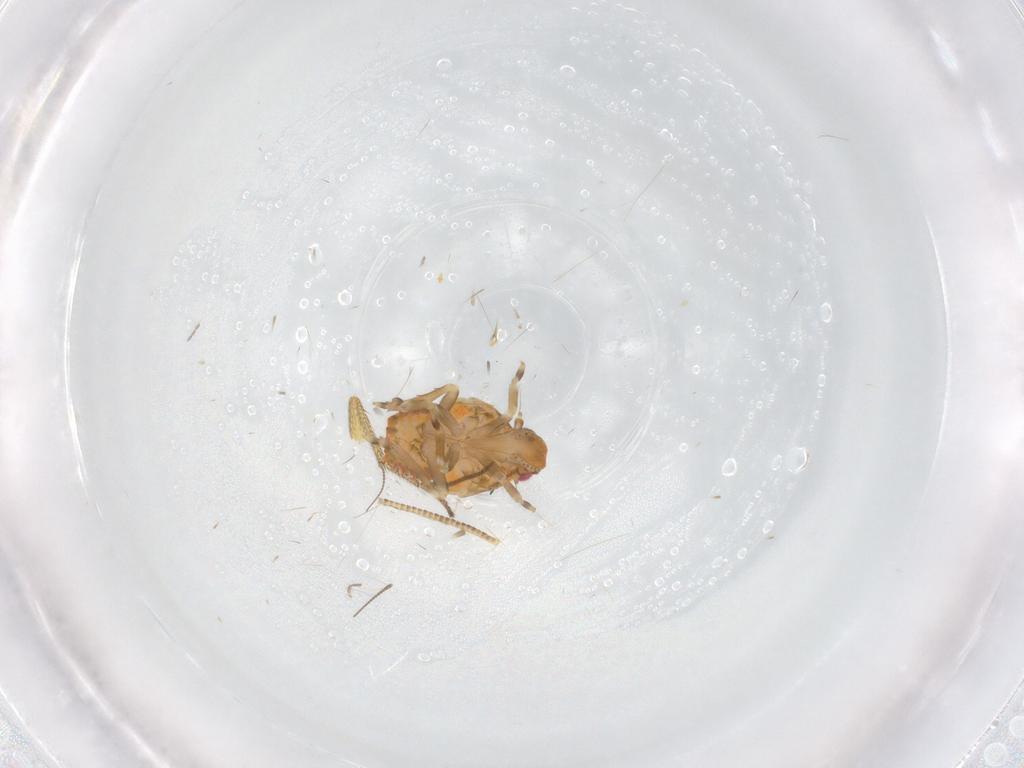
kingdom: Animalia
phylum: Arthropoda
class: Insecta
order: Hemiptera
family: Flatidae
